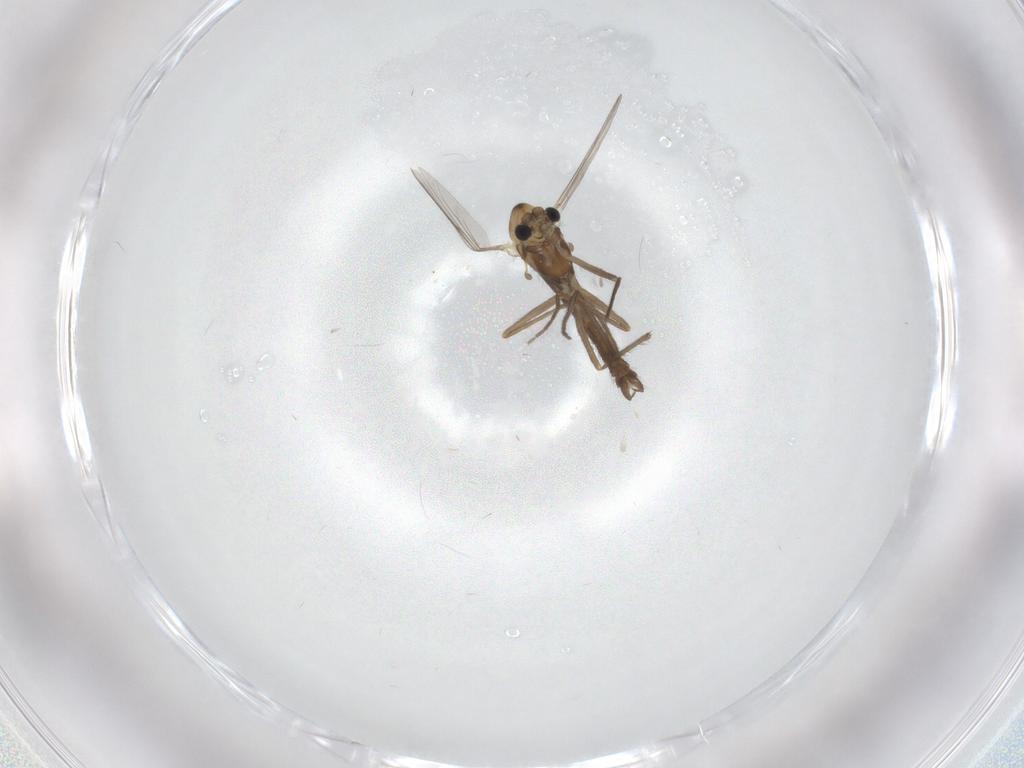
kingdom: Animalia
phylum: Arthropoda
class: Insecta
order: Diptera
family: Chironomidae
